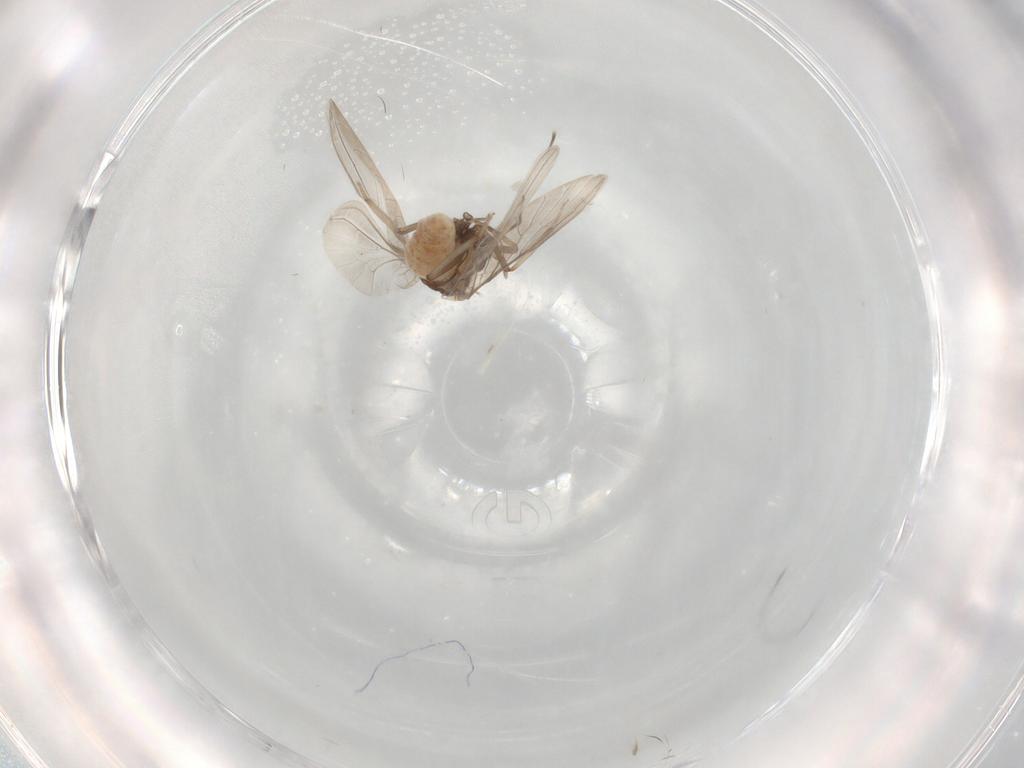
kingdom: Animalia
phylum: Arthropoda
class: Insecta
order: Neuroptera
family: Coniopterygidae
